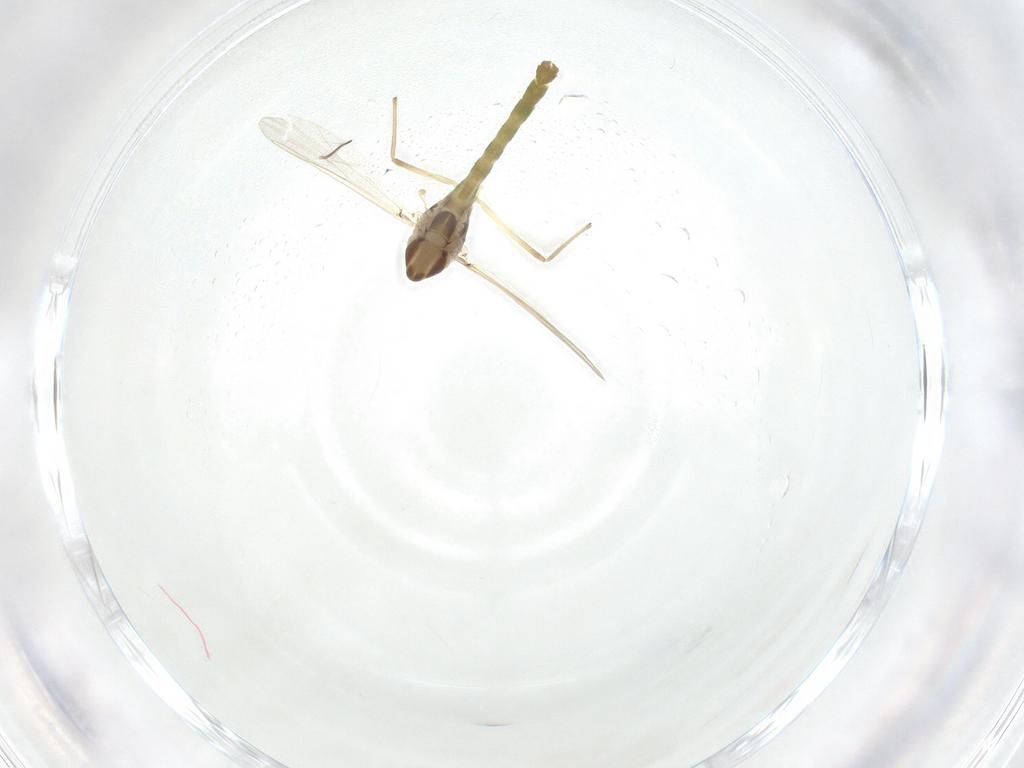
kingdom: Animalia
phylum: Arthropoda
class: Insecta
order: Diptera
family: Chironomidae
